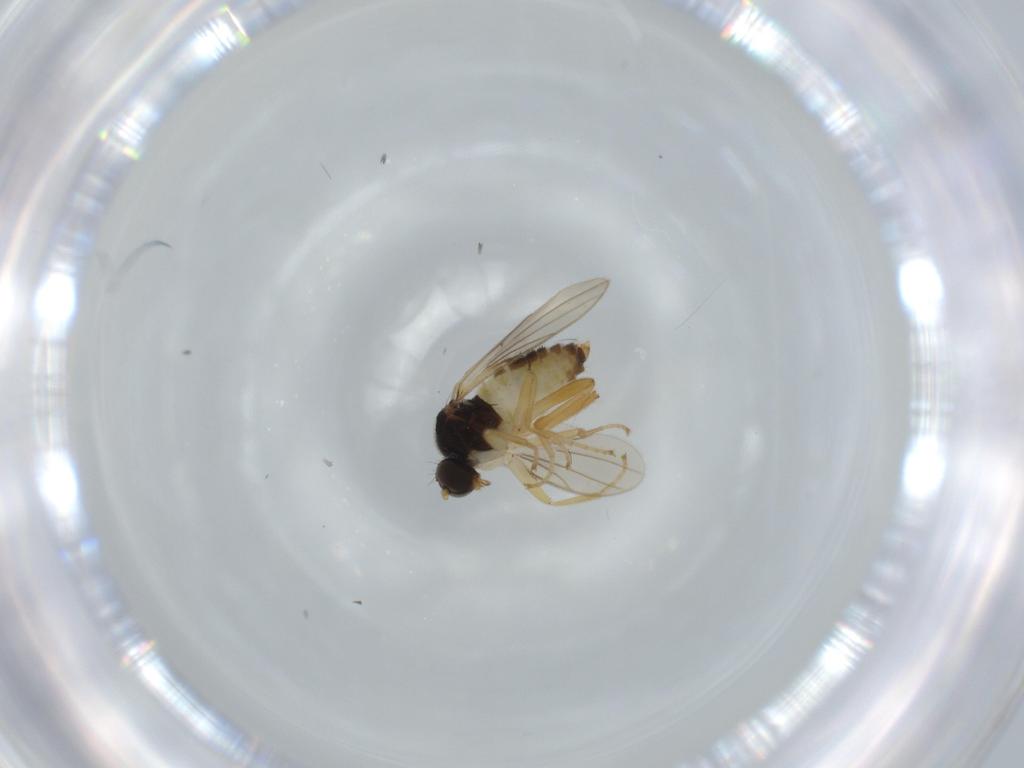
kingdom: Animalia
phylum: Arthropoda
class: Insecta
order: Diptera
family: Hybotidae
